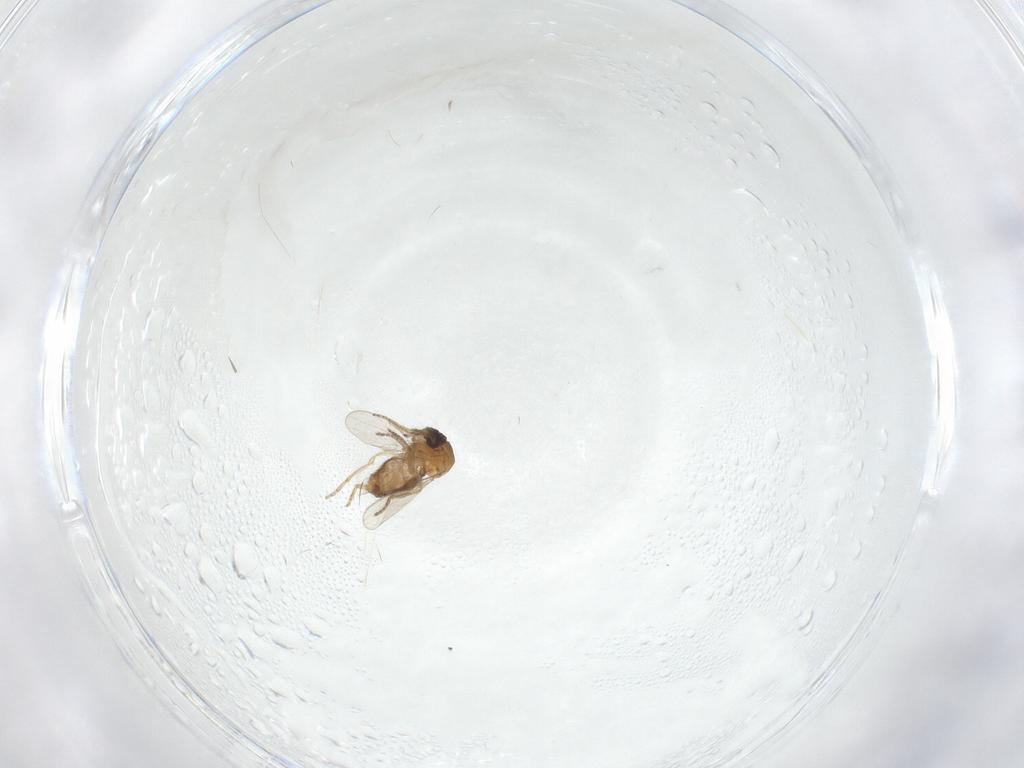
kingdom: Animalia
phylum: Arthropoda
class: Insecta
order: Diptera
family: Ceratopogonidae
